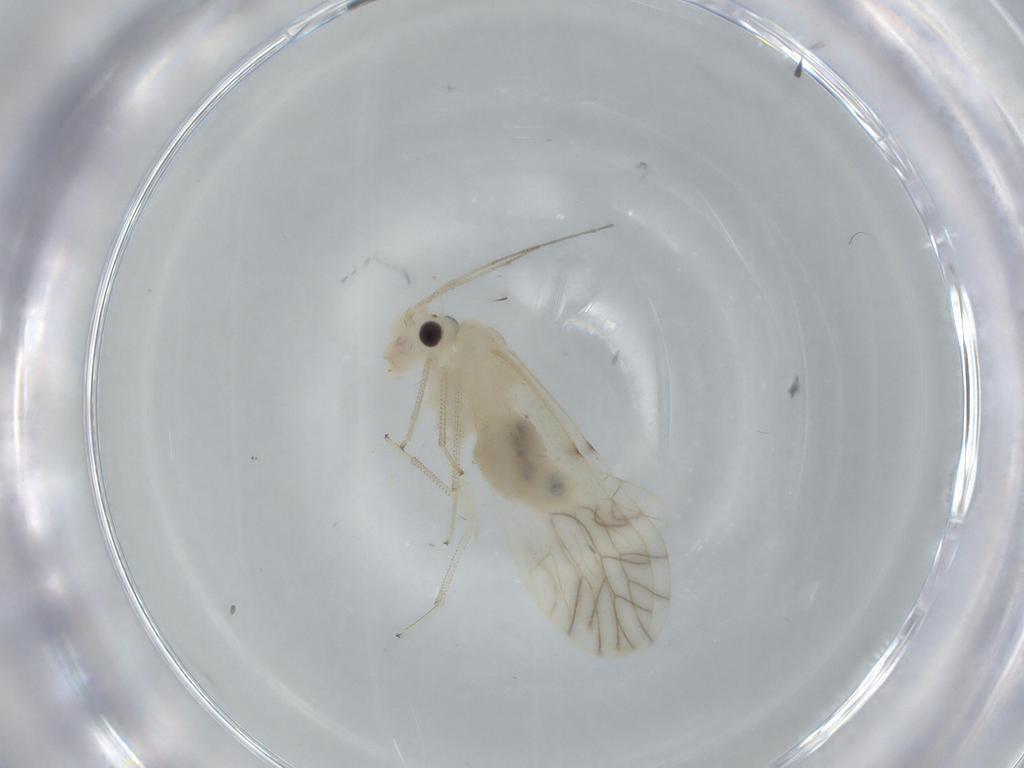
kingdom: Animalia
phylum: Arthropoda
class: Insecta
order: Psocodea
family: Caeciliusidae
